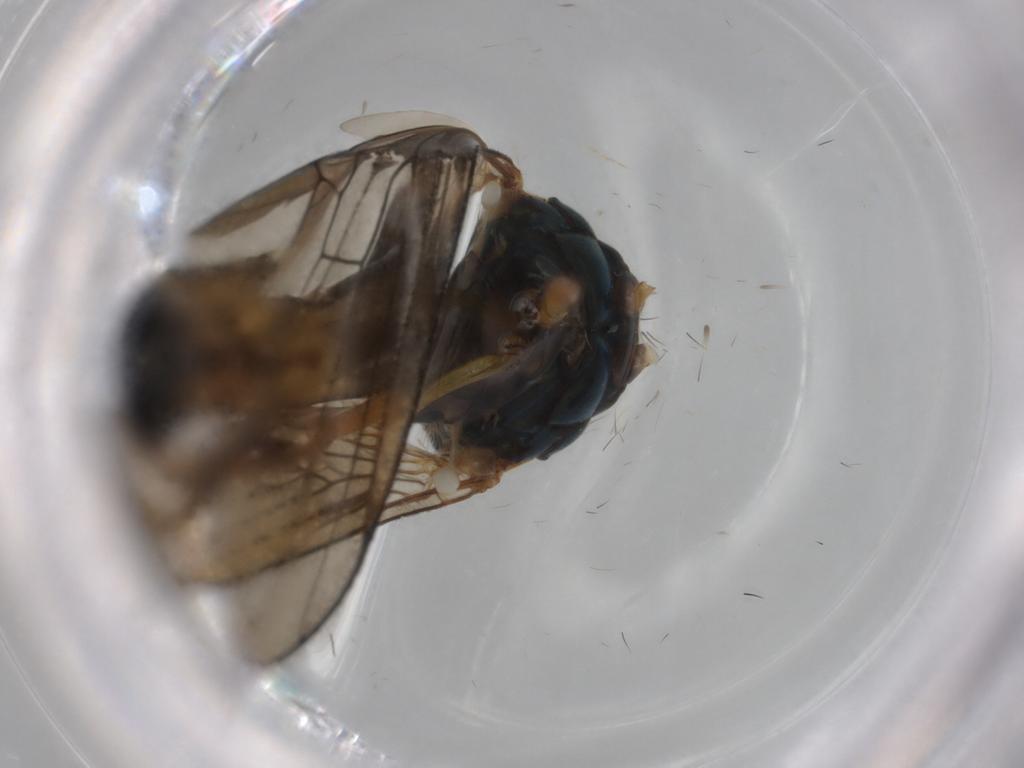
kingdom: Animalia
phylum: Arthropoda
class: Insecta
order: Diptera
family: Syrphidae
